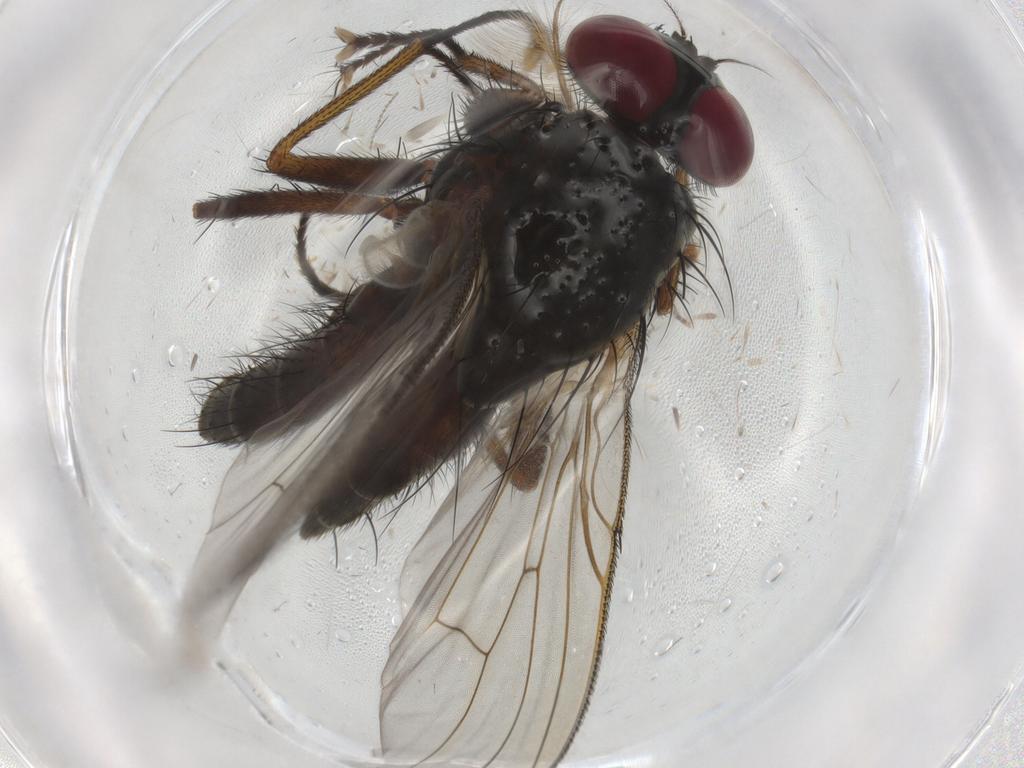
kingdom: Animalia
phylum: Arthropoda
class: Insecta
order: Diptera
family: Muscidae
